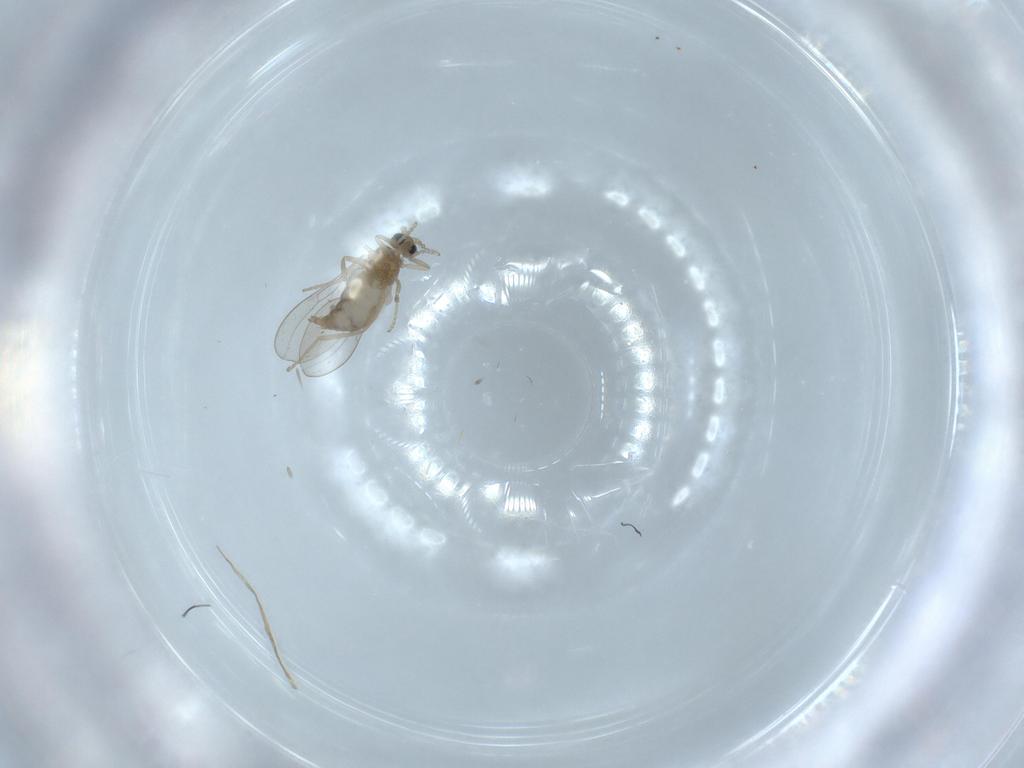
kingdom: Animalia
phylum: Arthropoda
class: Insecta
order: Diptera
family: Cecidomyiidae
